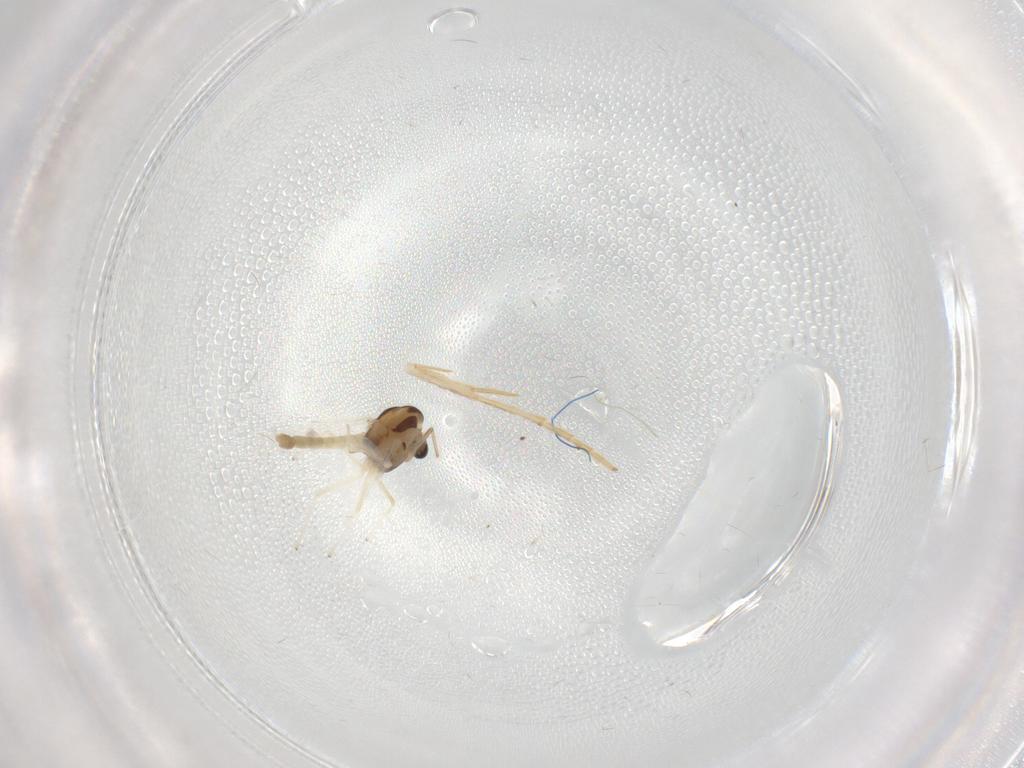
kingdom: Animalia
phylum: Arthropoda
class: Insecta
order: Diptera
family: Chironomidae
